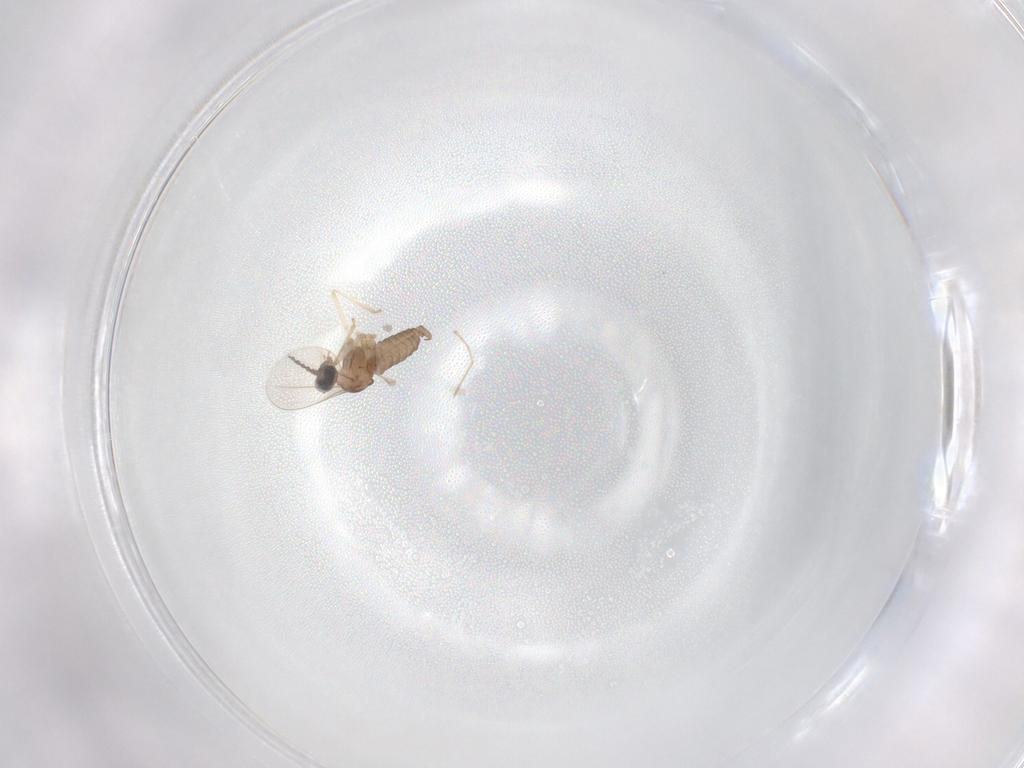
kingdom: Animalia
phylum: Arthropoda
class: Insecta
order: Diptera
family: Cecidomyiidae
